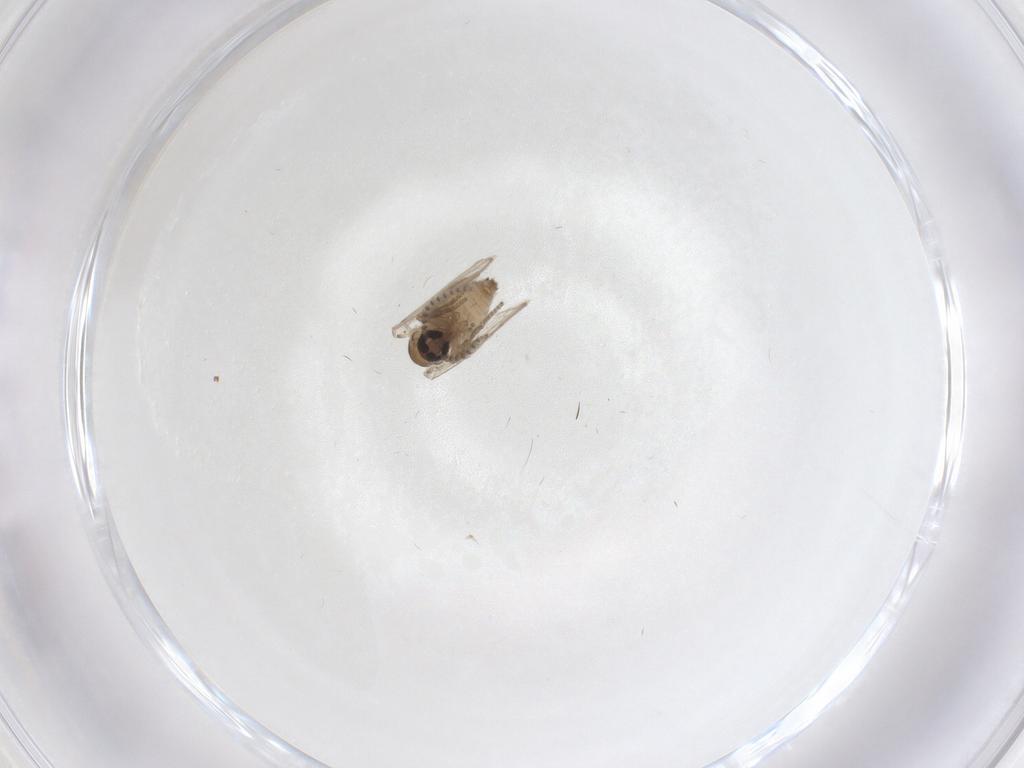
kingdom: Animalia
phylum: Arthropoda
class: Insecta
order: Diptera
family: Psychodidae
